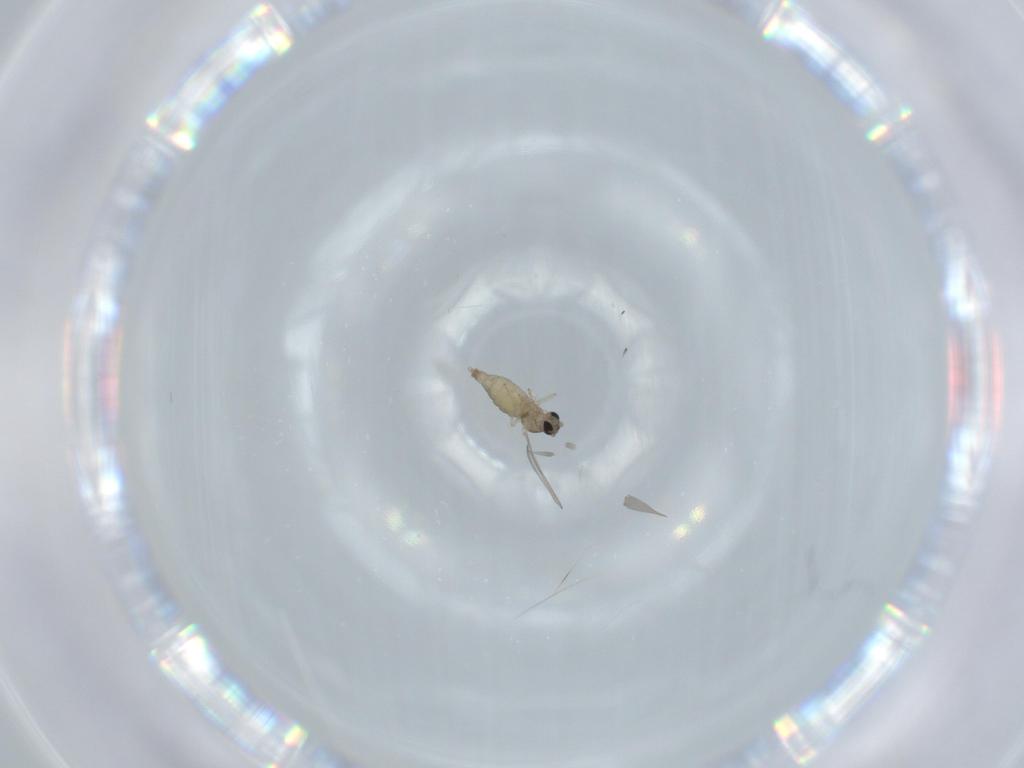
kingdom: Animalia
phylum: Arthropoda
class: Insecta
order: Diptera
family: Cecidomyiidae
